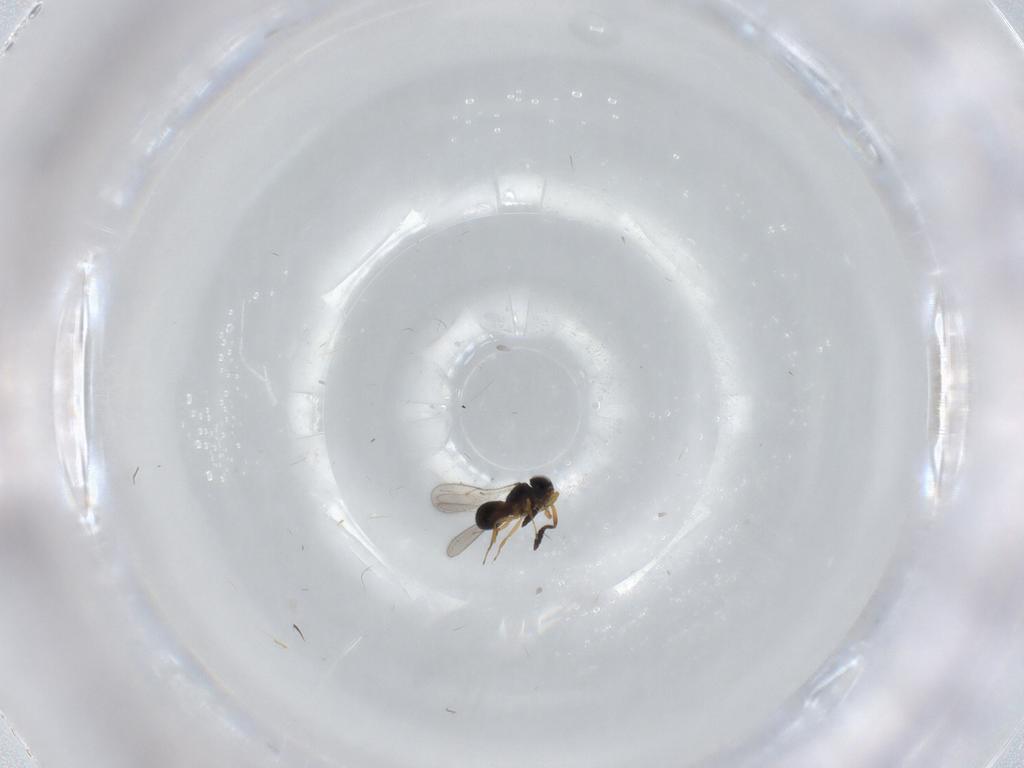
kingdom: Animalia
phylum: Arthropoda
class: Insecta
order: Hymenoptera
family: Scelionidae
